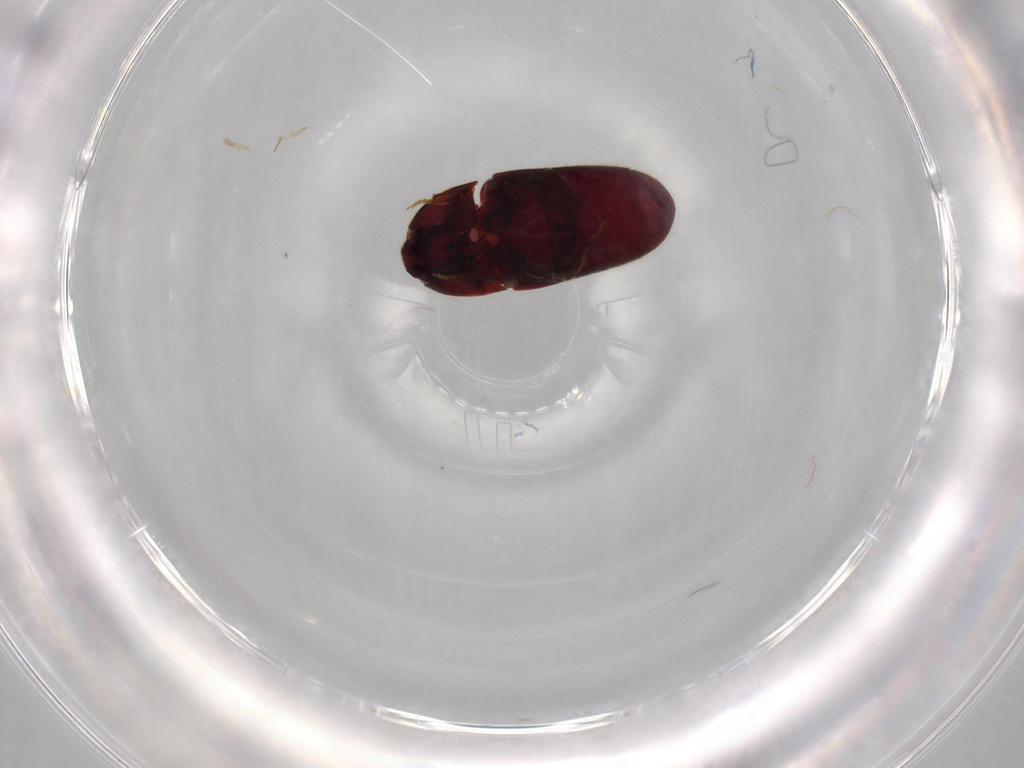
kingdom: Animalia
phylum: Arthropoda
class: Insecta
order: Coleoptera
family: Throscidae
